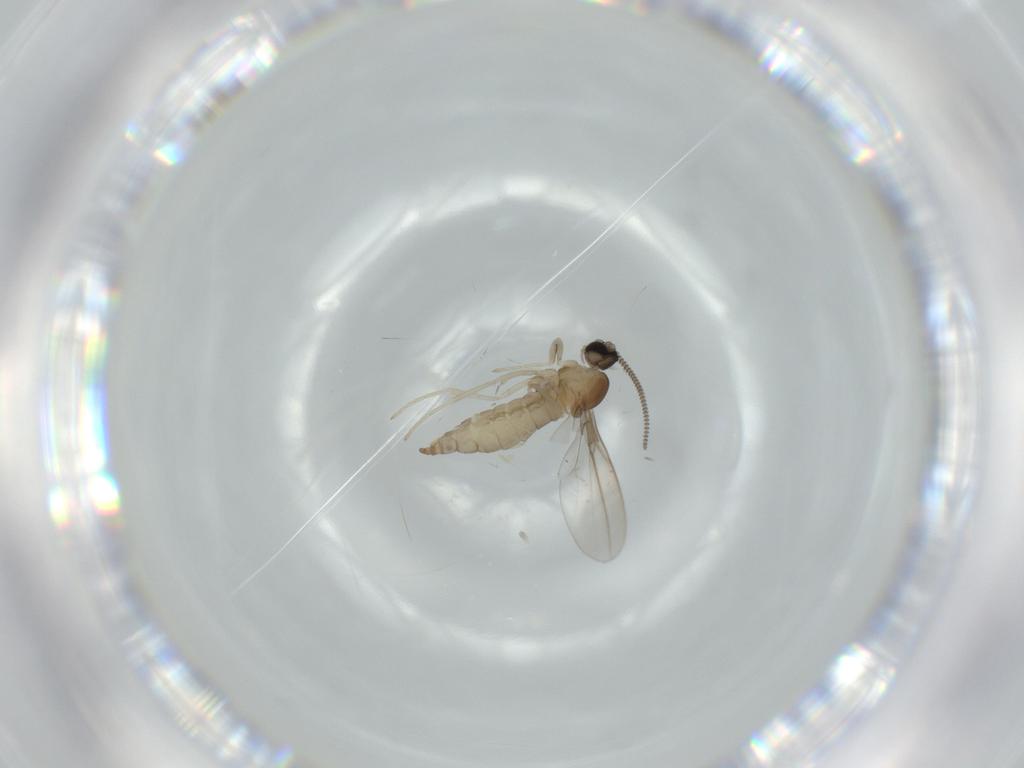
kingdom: Animalia
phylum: Arthropoda
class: Insecta
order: Diptera
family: Cecidomyiidae
